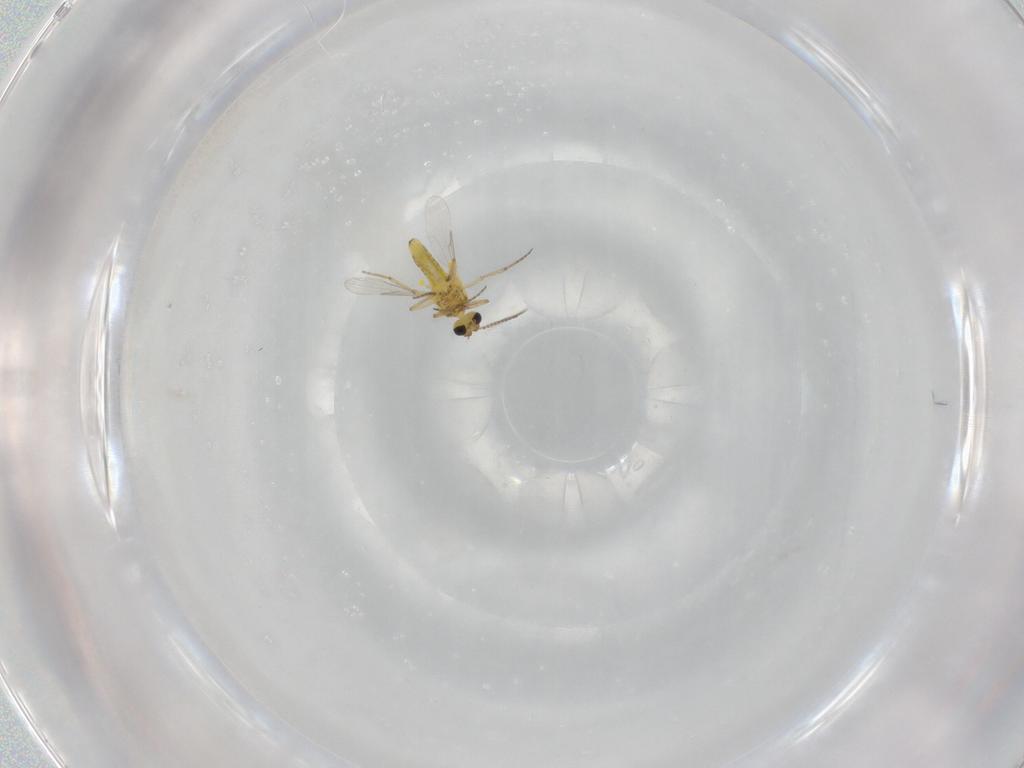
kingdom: Animalia
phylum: Arthropoda
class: Insecta
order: Diptera
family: Ceratopogonidae
